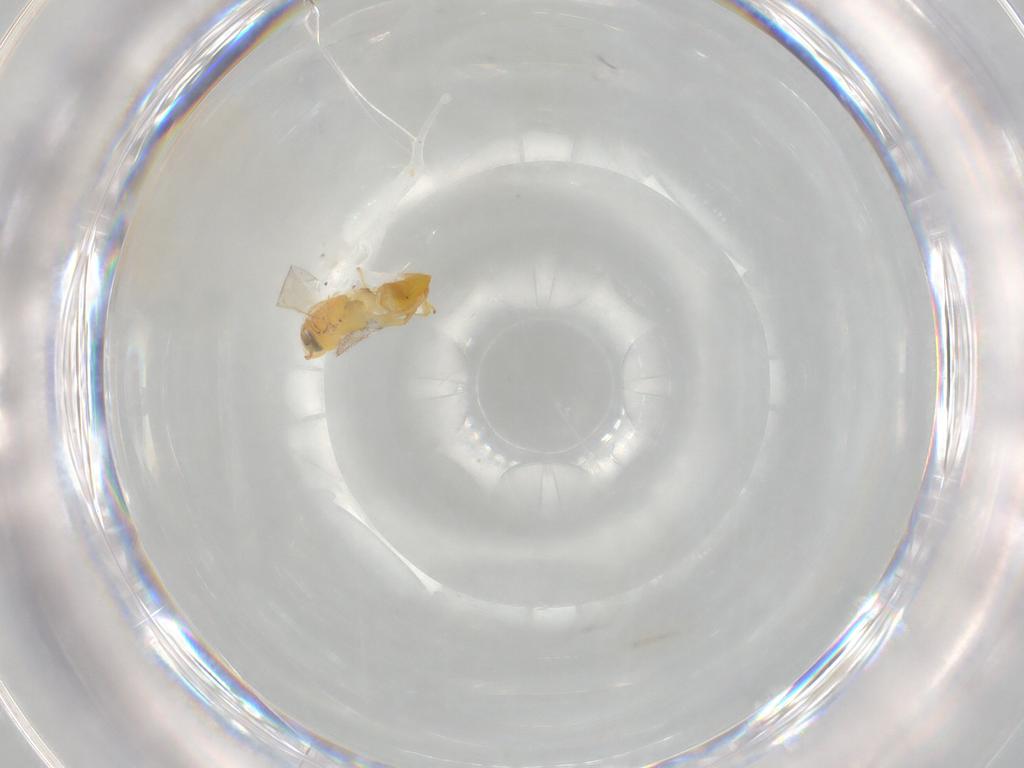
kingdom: Animalia
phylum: Arthropoda
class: Insecta
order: Hymenoptera
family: Encyrtidae
